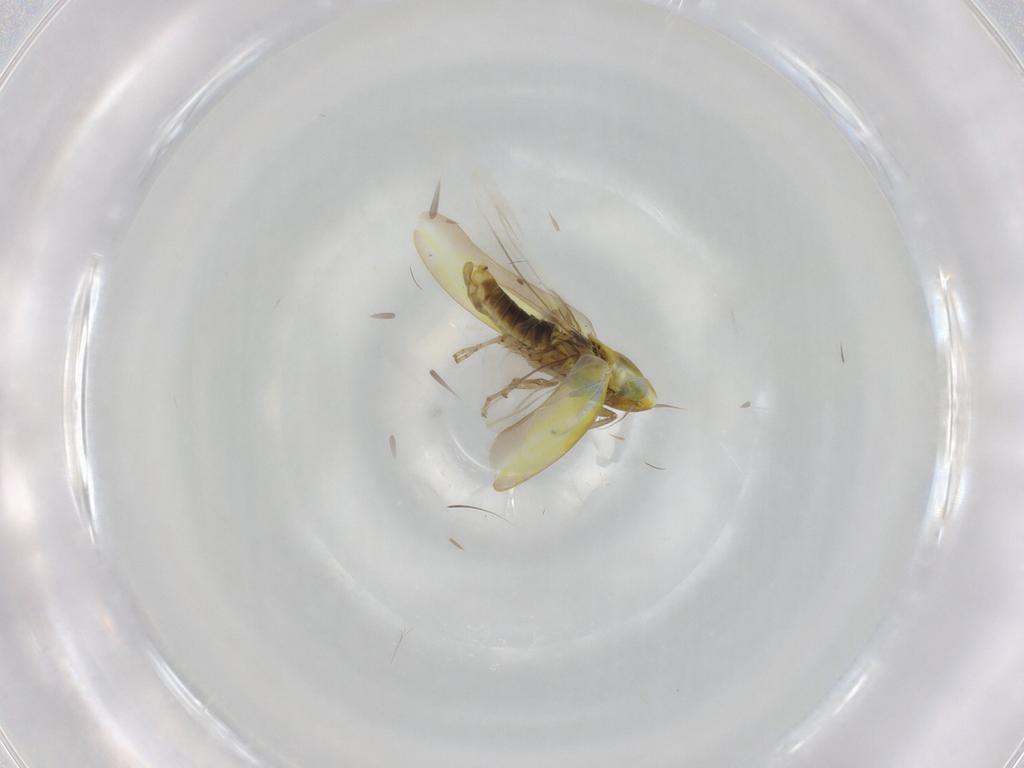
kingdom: Animalia
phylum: Arthropoda
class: Insecta
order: Hemiptera
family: Cicadellidae
